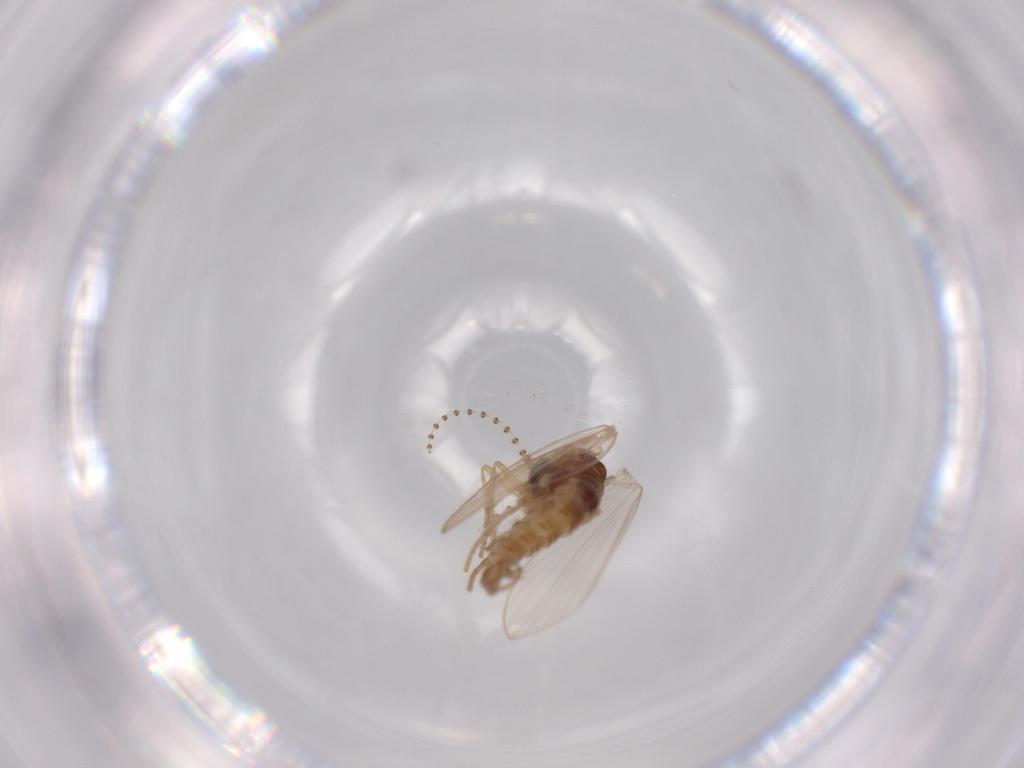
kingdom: Animalia
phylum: Arthropoda
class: Insecta
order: Diptera
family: Psychodidae
